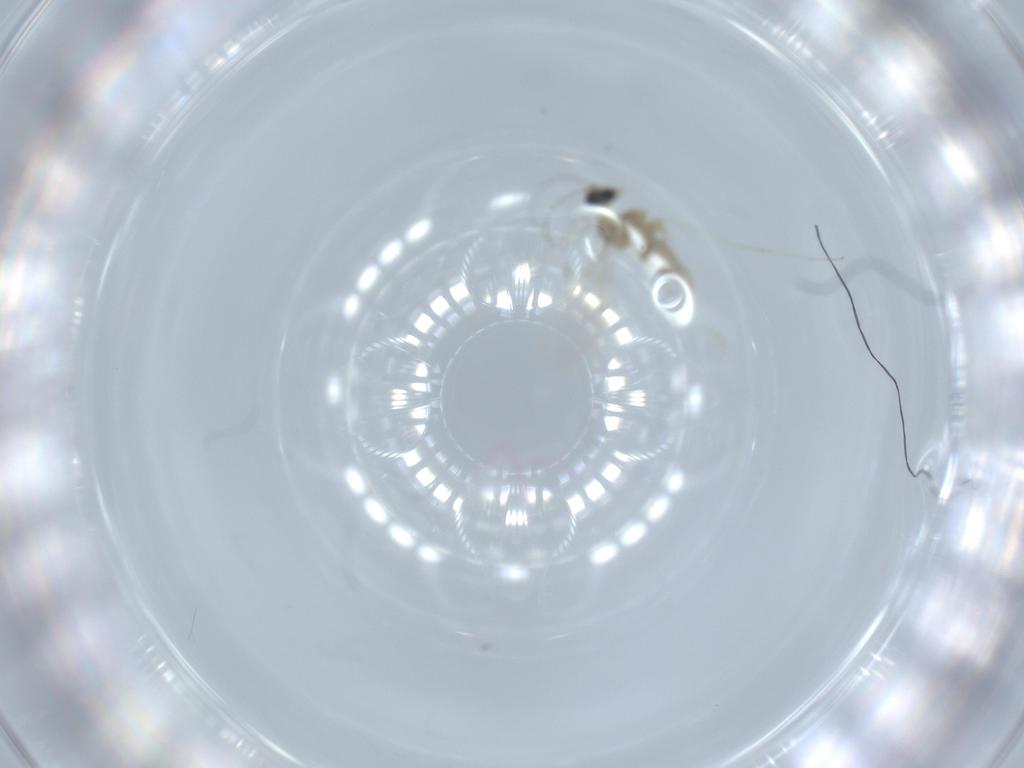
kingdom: Animalia
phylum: Arthropoda
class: Insecta
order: Diptera
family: Cecidomyiidae
